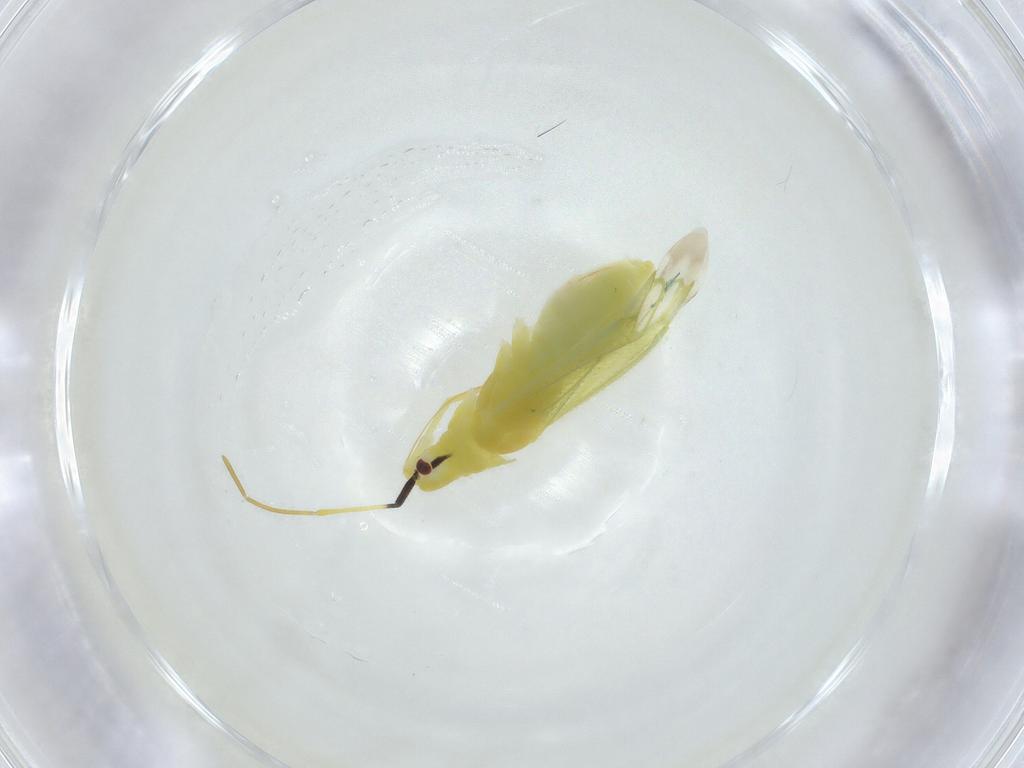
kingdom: Animalia
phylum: Arthropoda
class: Insecta
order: Hemiptera
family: Miridae
